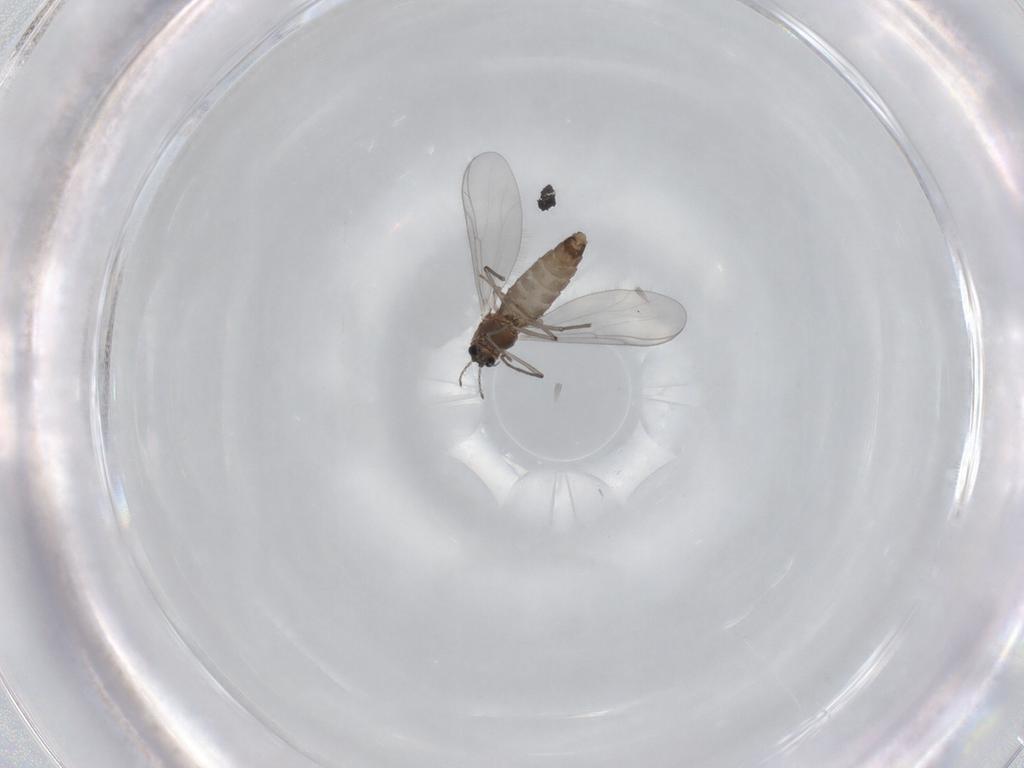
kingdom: Animalia
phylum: Arthropoda
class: Insecta
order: Diptera
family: Chironomidae
